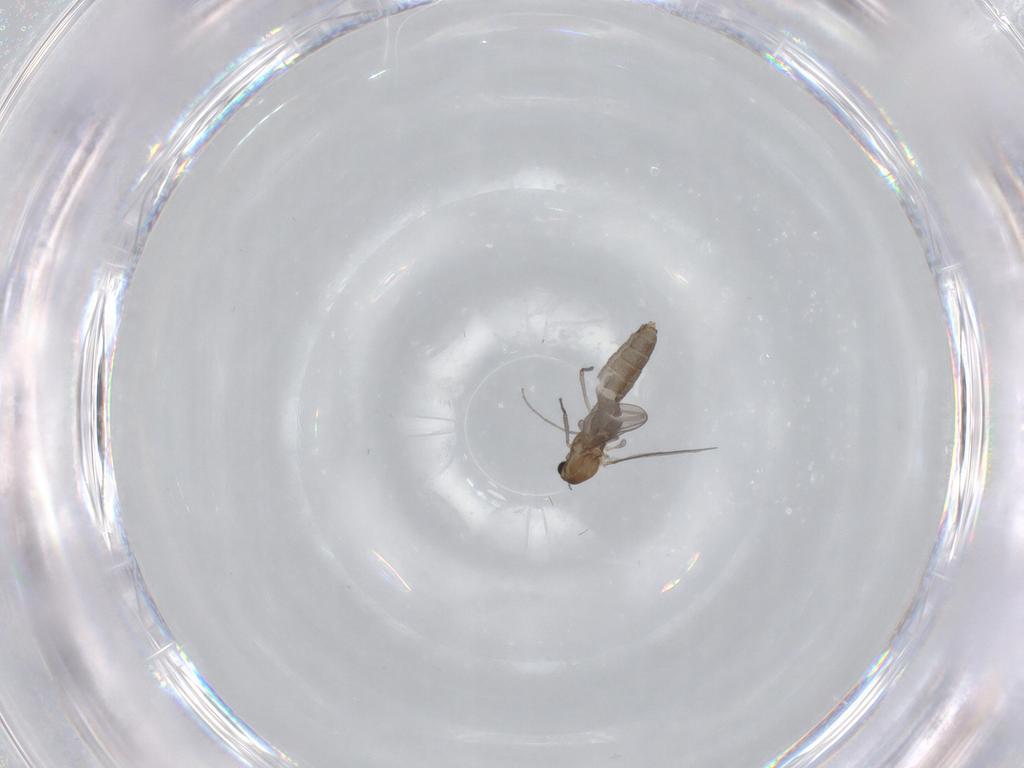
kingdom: Animalia
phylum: Arthropoda
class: Insecta
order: Diptera
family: Chironomidae
